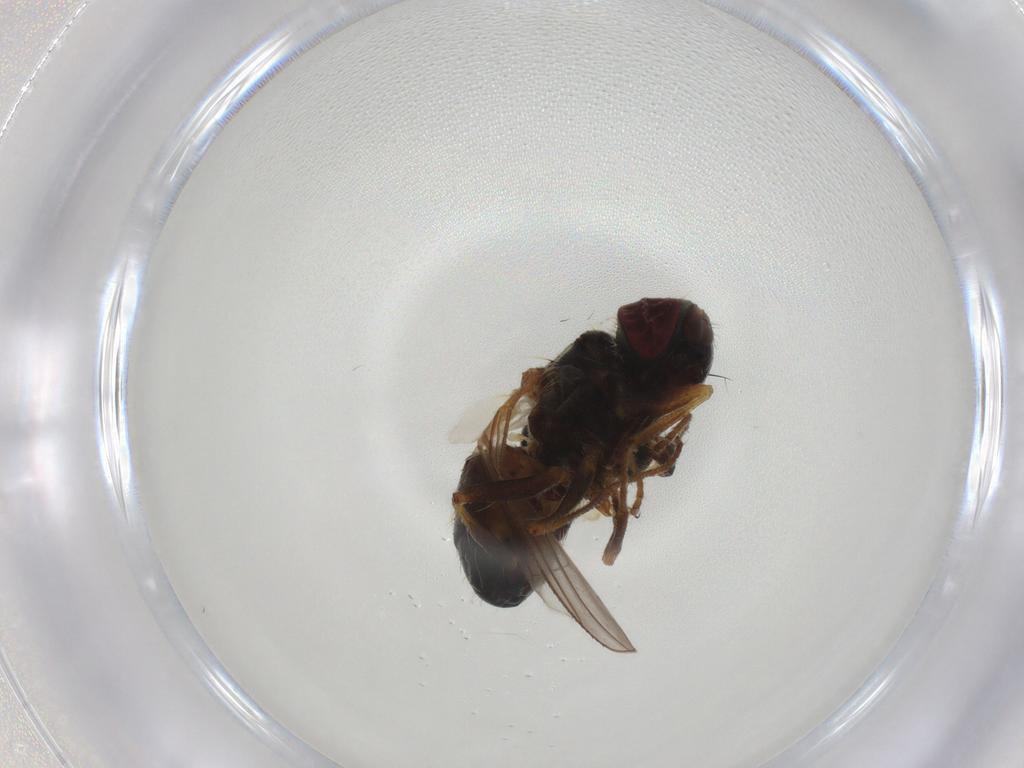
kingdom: Animalia
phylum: Arthropoda
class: Insecta
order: Diptera
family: Muscidae
